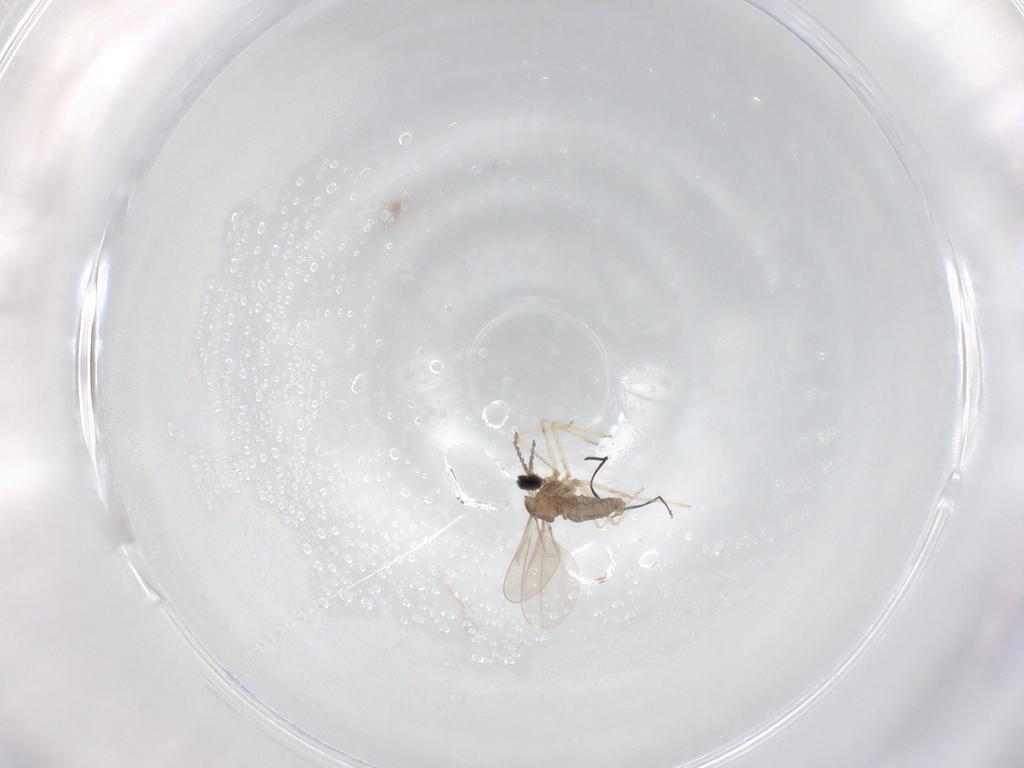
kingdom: Animalia
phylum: Arthropoda
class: Insecta
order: Diptera
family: Cecidomyiidae
